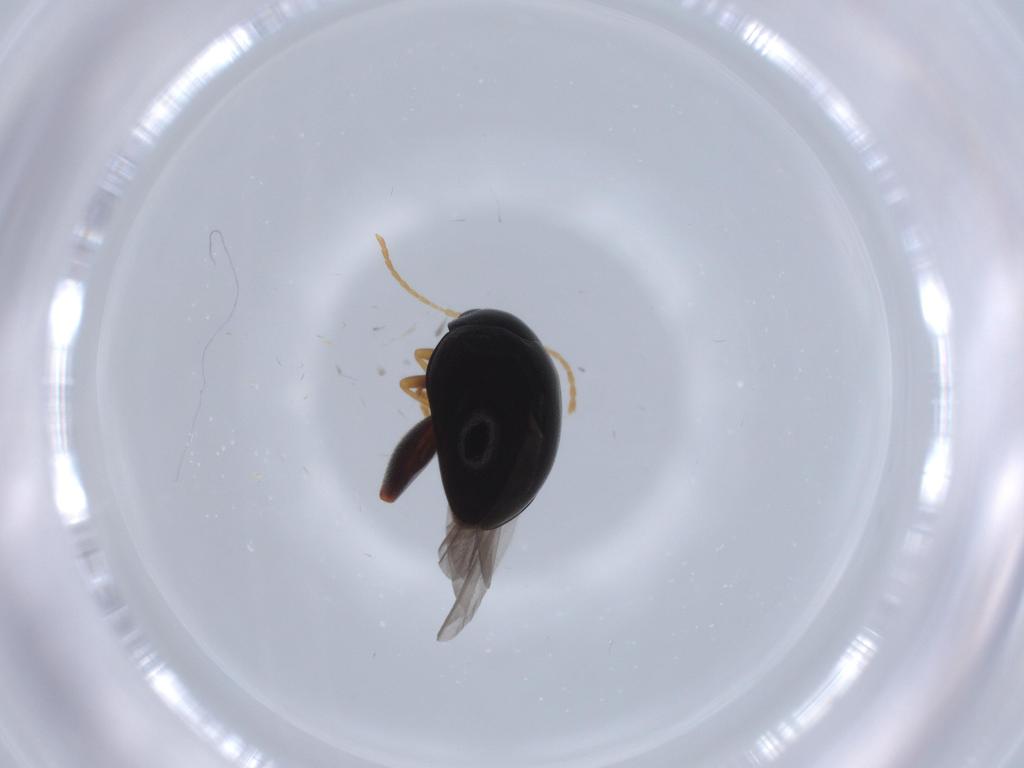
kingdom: Animalia
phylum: Arthropoda
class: Insecta
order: Coleoptera
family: Chrysomelidae
